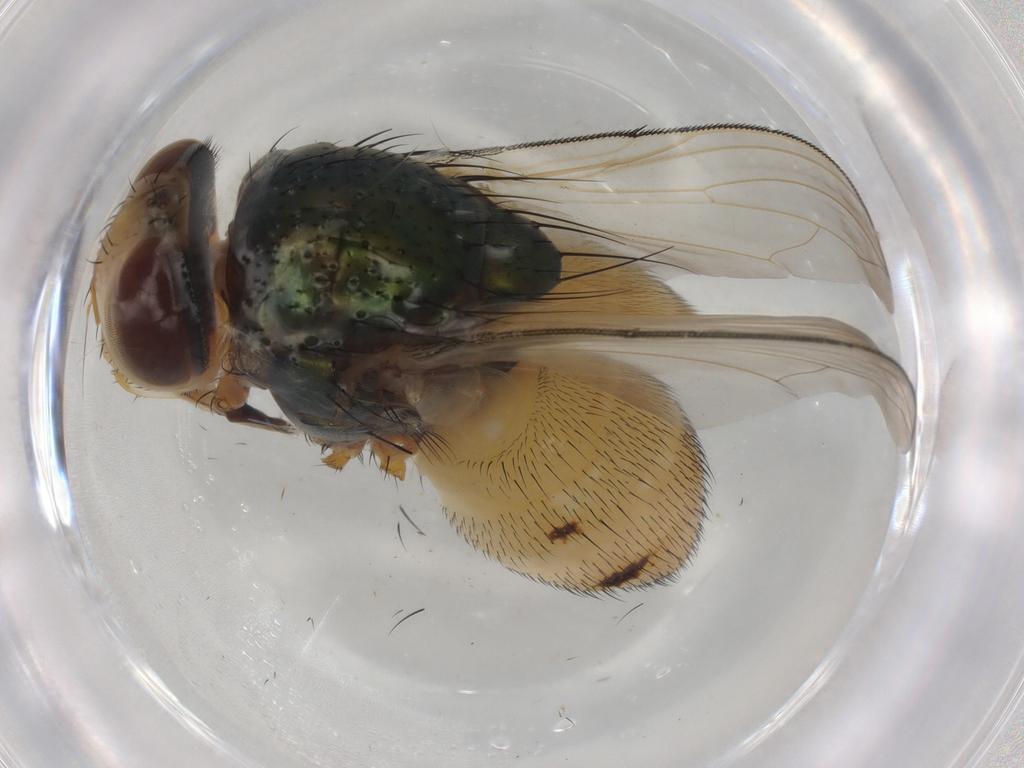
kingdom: Animalia
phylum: Arthropoda
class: Insecta
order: Diptera
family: Calliphoridae
